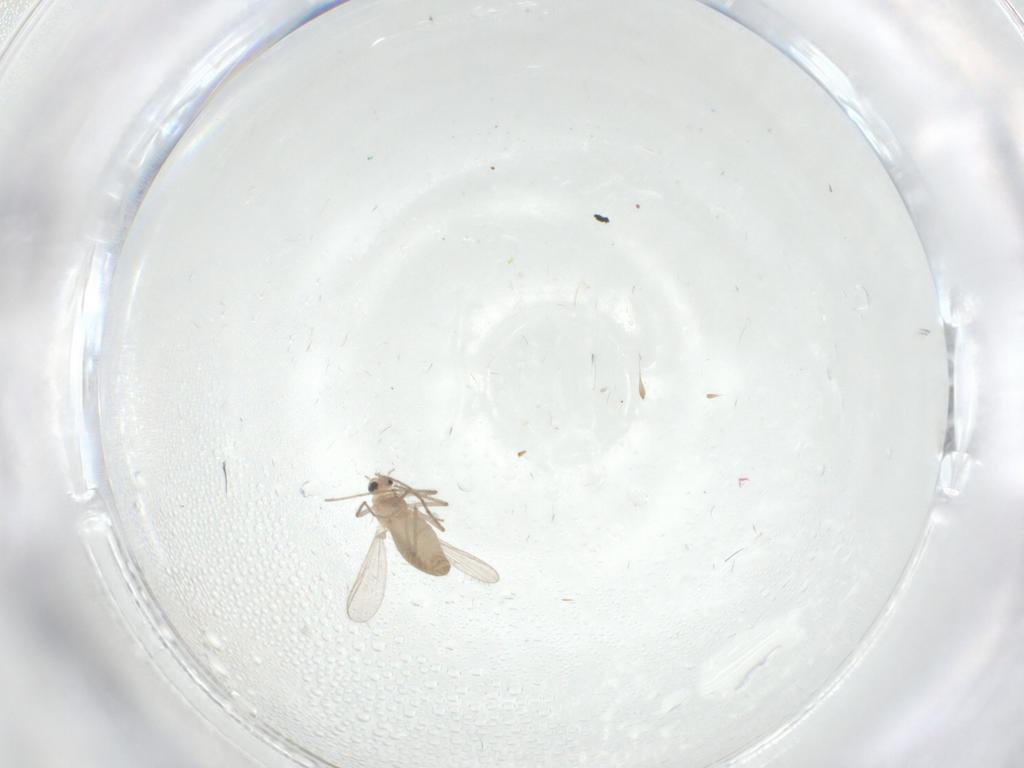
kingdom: Animalia
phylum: Arthropoda
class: Insecta
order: Diptera
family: Chironomidae
